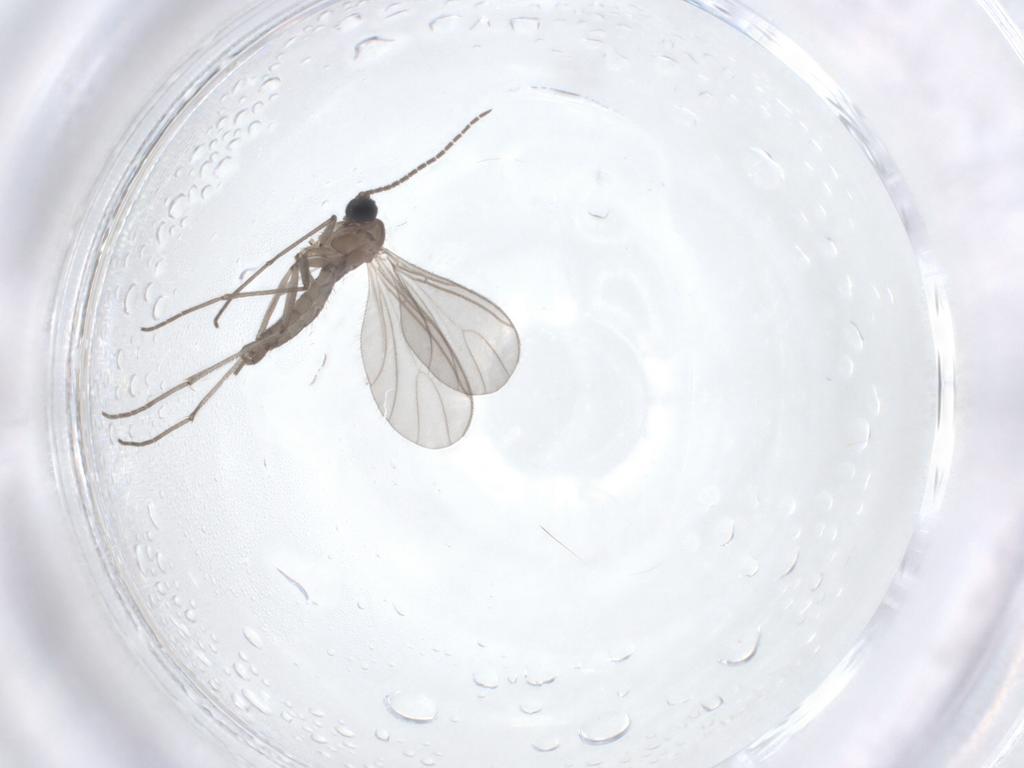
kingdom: Animalia
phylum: Arthropoda
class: Insecta
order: Diptera
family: Sciaridae
